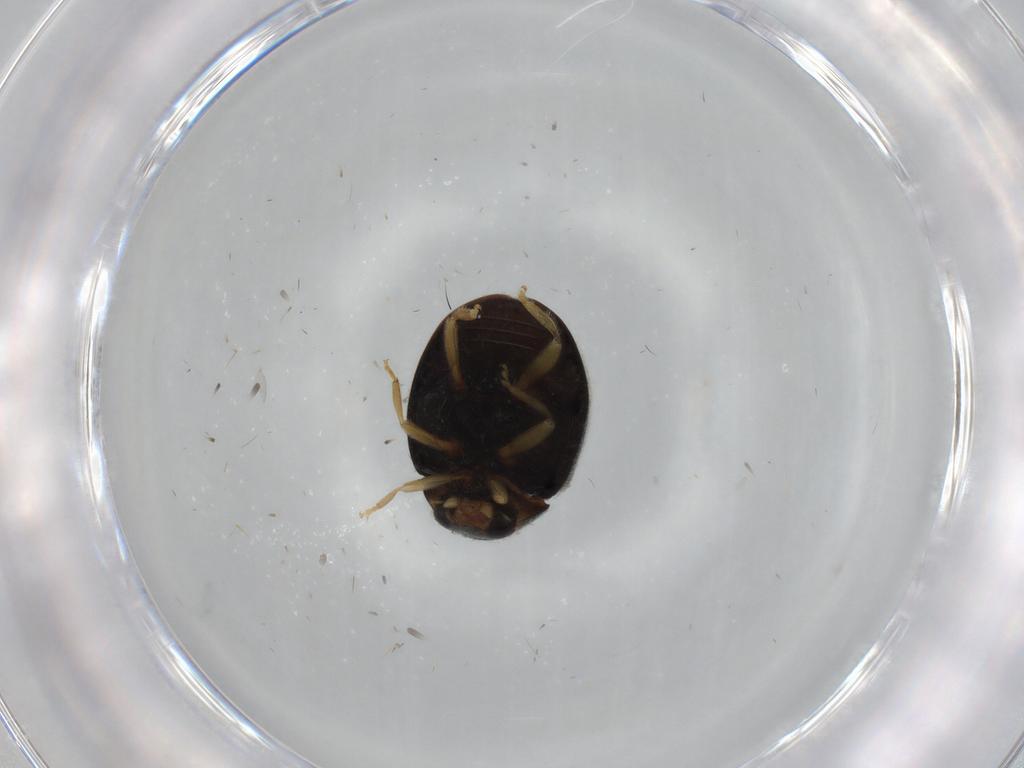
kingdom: Animalia
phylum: Arthropoda
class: Insecta
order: Coleoptera
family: Coccinellidae
